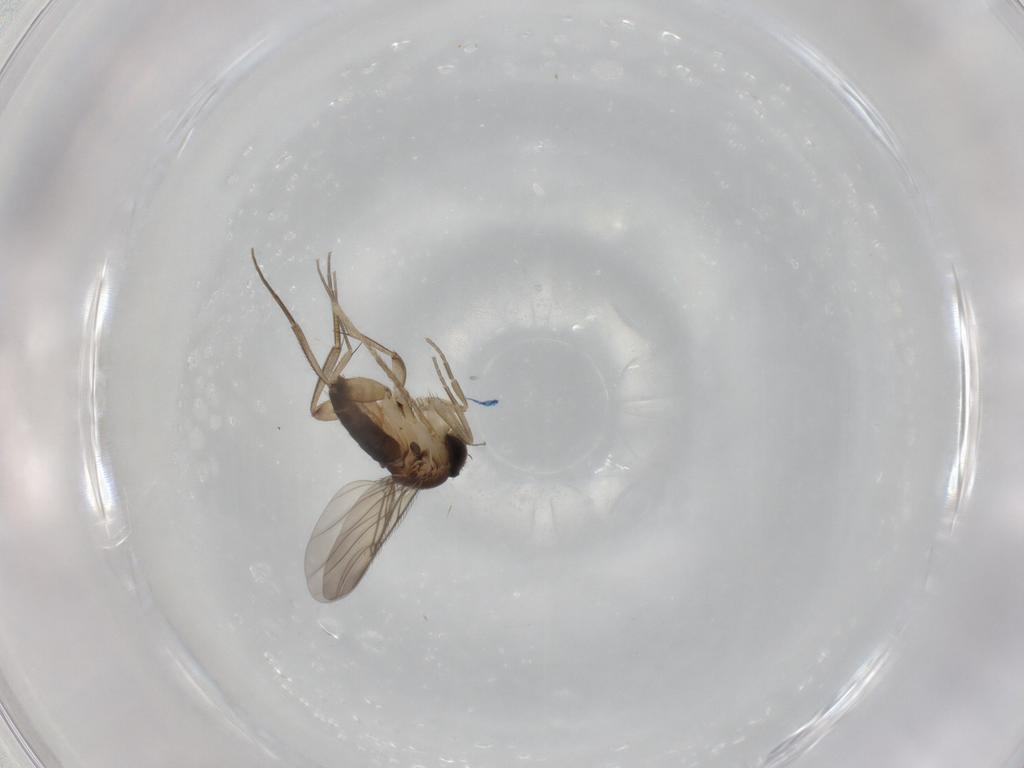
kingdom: Animalia
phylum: Arthropoda
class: Insecta
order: Diptera
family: Phoridae
